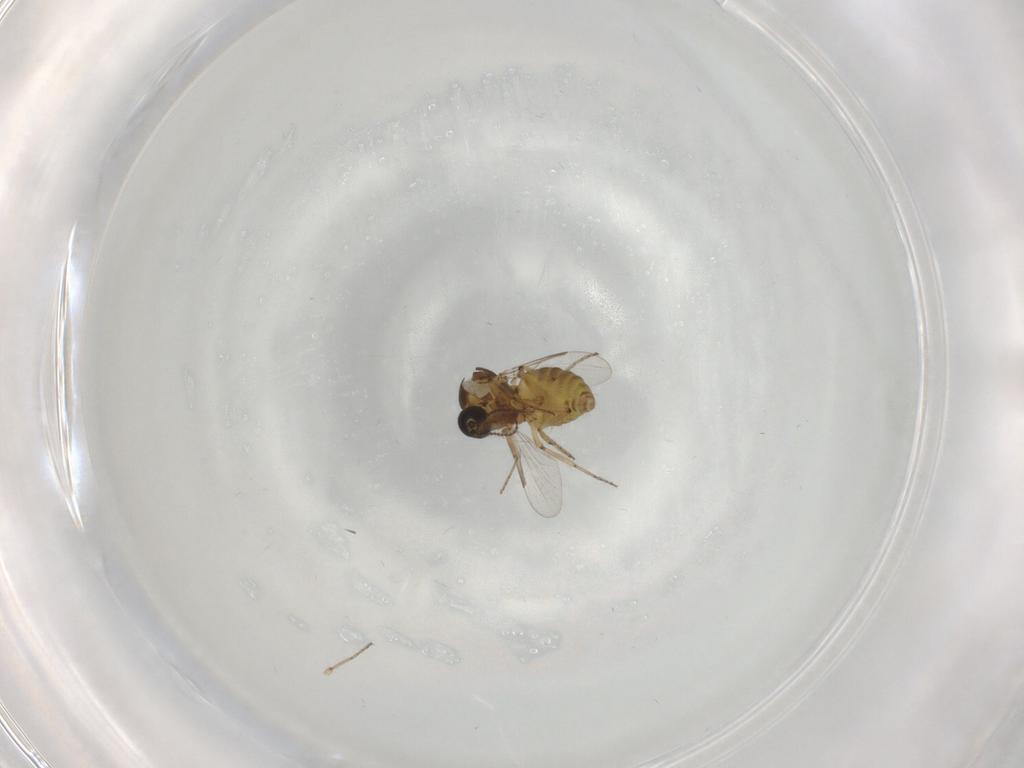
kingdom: Animalia
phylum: Arthropoda
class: Insecta
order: Diptera
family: Ceratopogonidae
